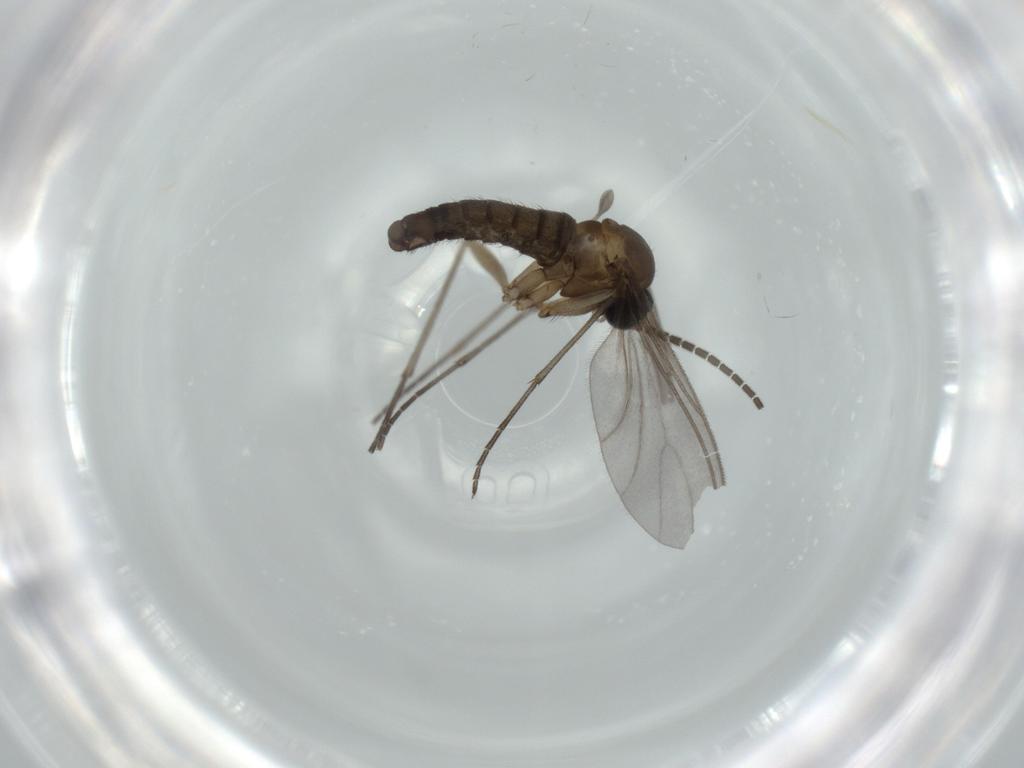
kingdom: Animalia
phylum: Arthropoda
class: Insecta
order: Diptera
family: Sciaridae
